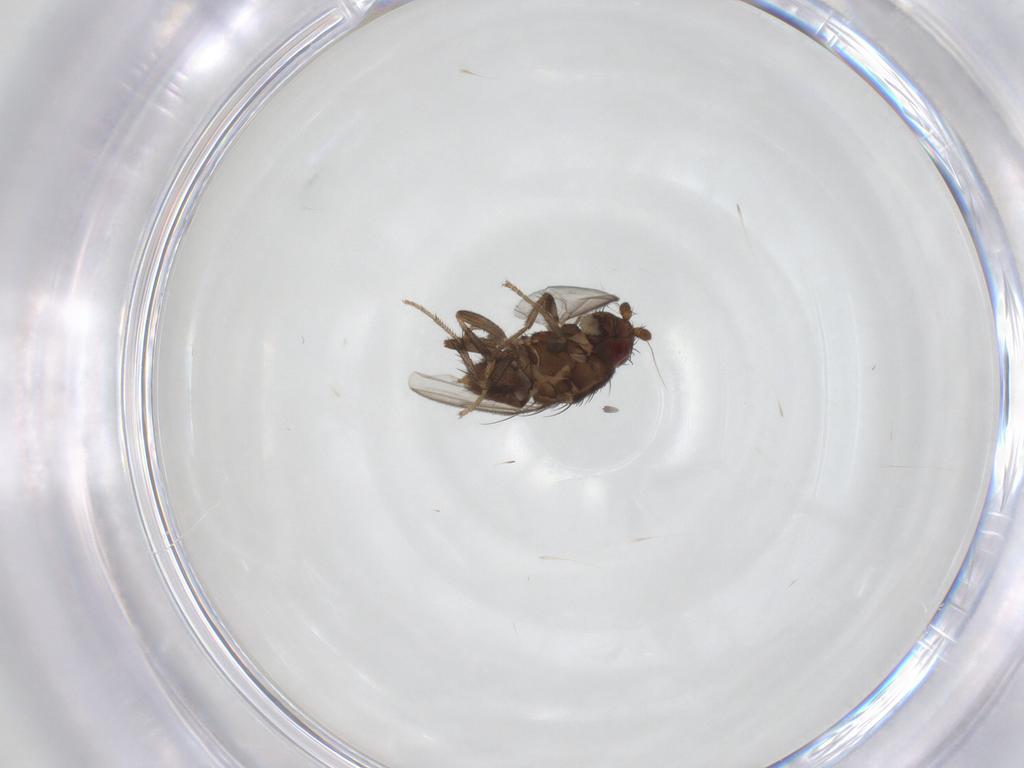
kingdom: Animalia
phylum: Arthropoda
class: Insecta
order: Diptera
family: Sphaeroceridae
